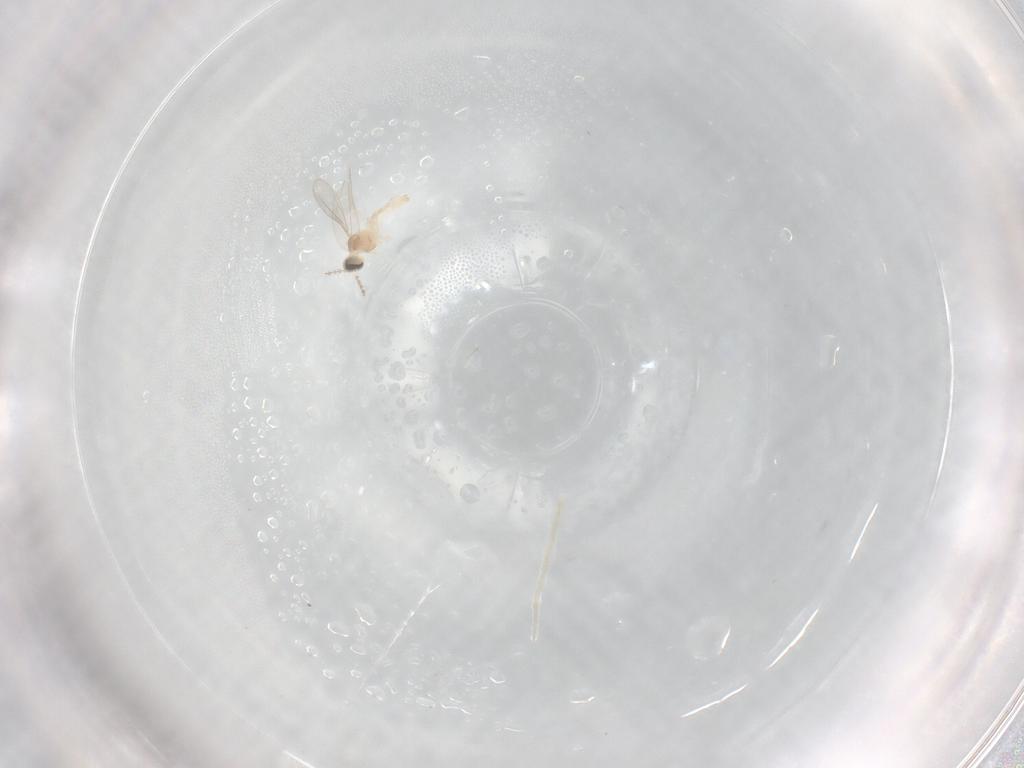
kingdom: Animalia
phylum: Arthropoda
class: Insecta
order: Diptera
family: Cecidomyiidae
